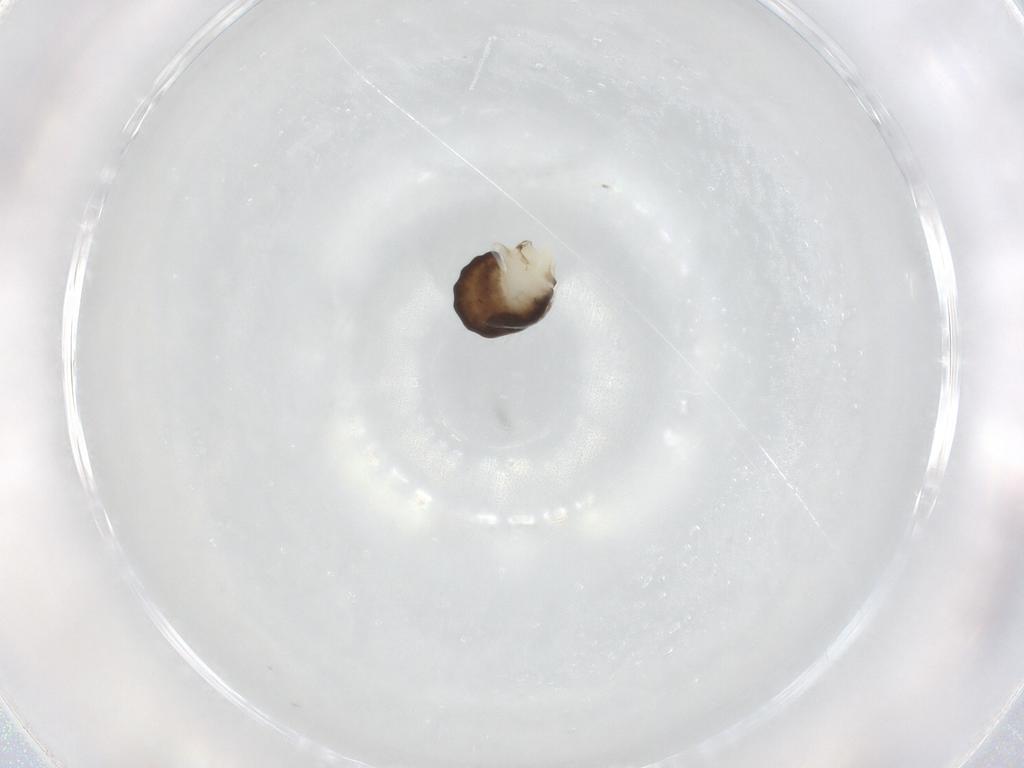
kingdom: Animalia
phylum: Arthropoda
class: Insecta
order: Hymenoptera
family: Dryinidae
